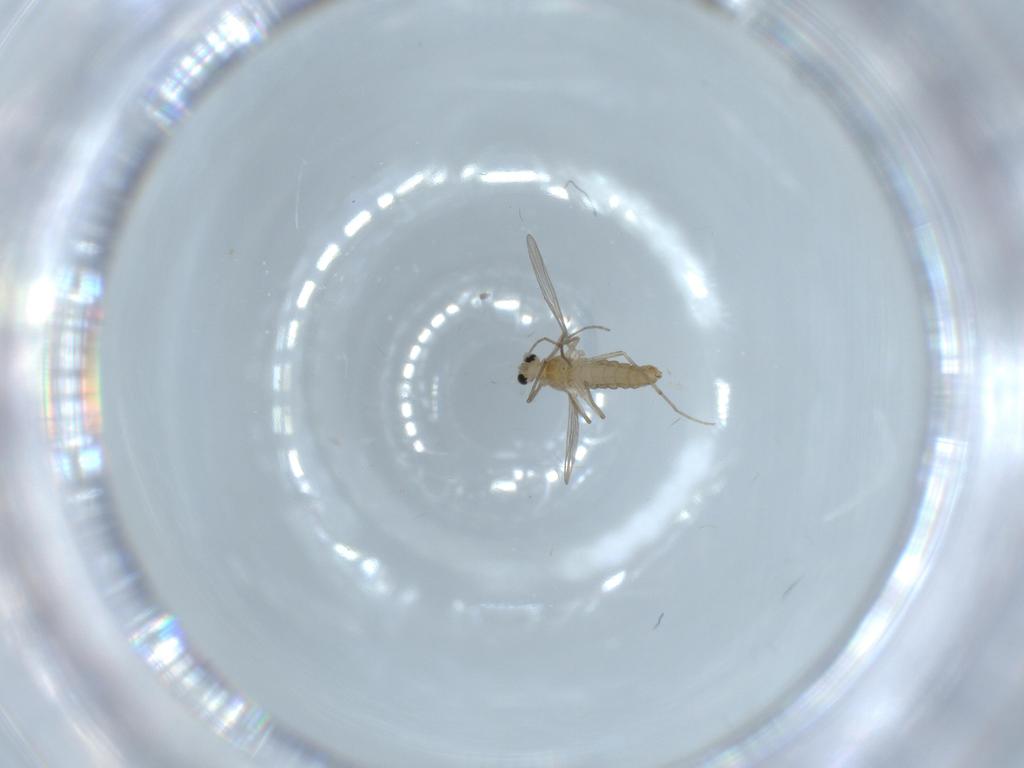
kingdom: Animalia
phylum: Arthropoda
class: Insecta
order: Diptera
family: Chironomidae
